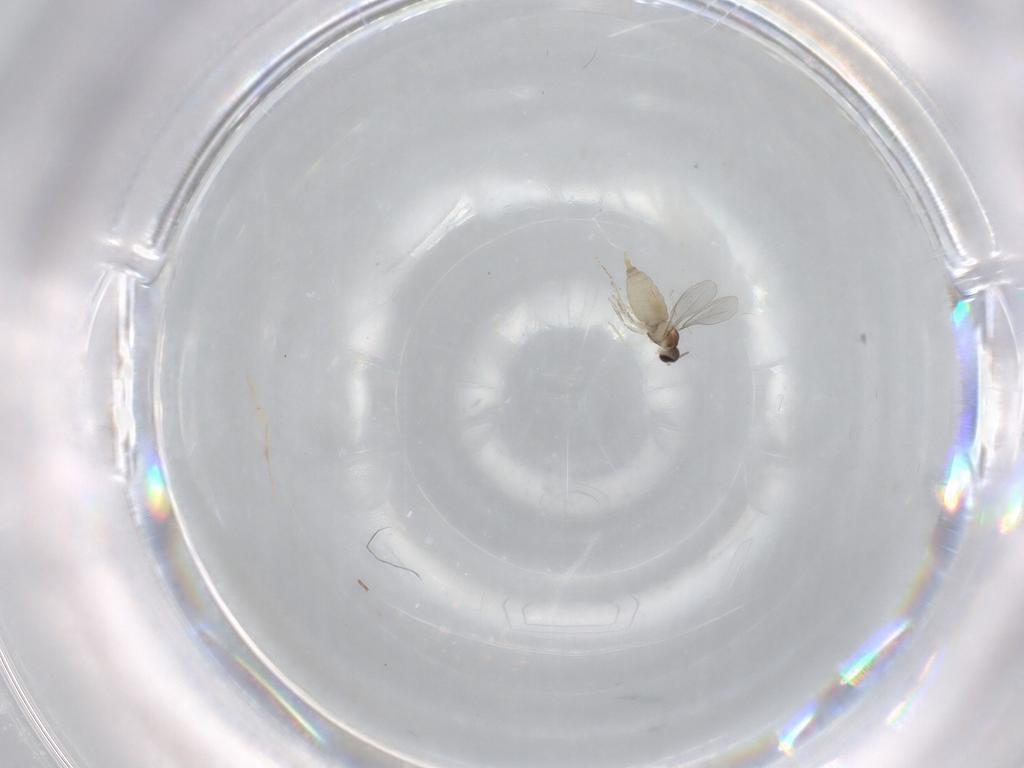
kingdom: Animalia
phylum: Arthropoda
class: Insecta
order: Diptera
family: Phoridae
